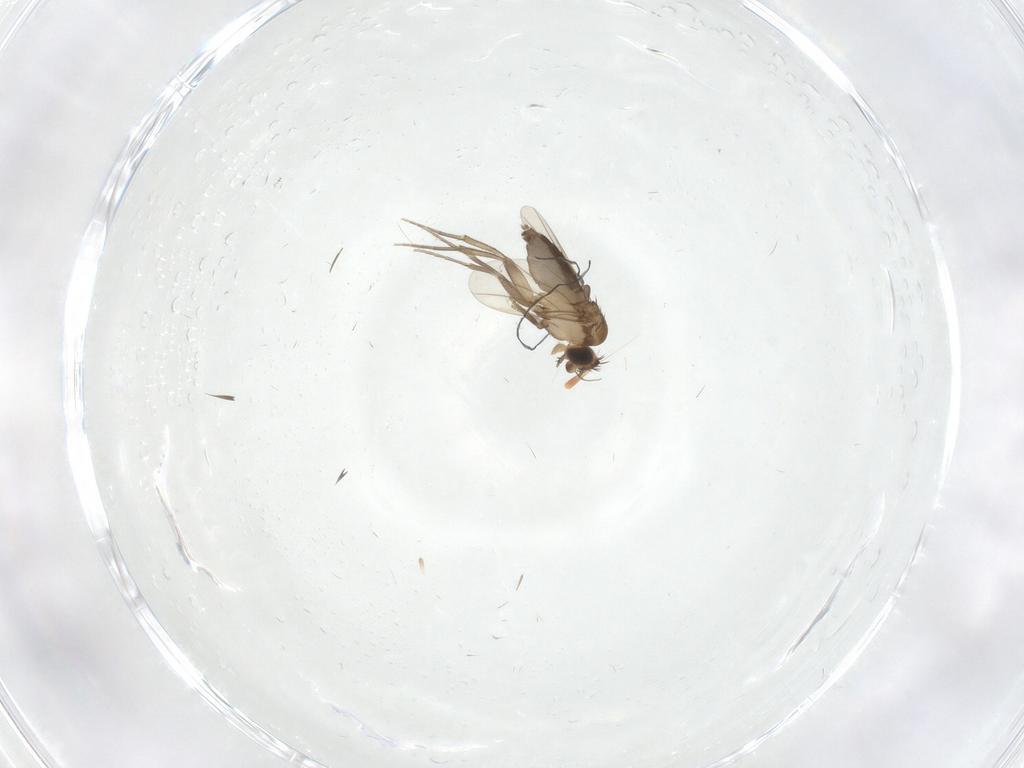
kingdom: Animalia
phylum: Arthropoda
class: Insecta
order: Diptera
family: Phoridae
